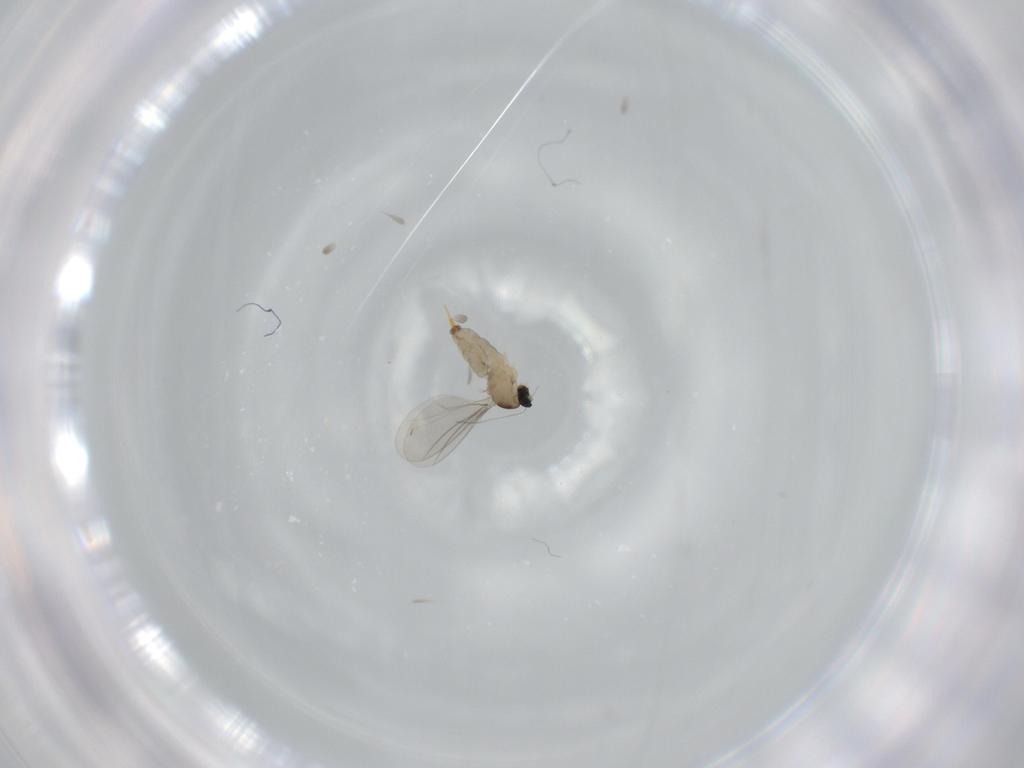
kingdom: Animalia
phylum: Arthropoda
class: Insecta
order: Diptera
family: Cecidomyiidae
